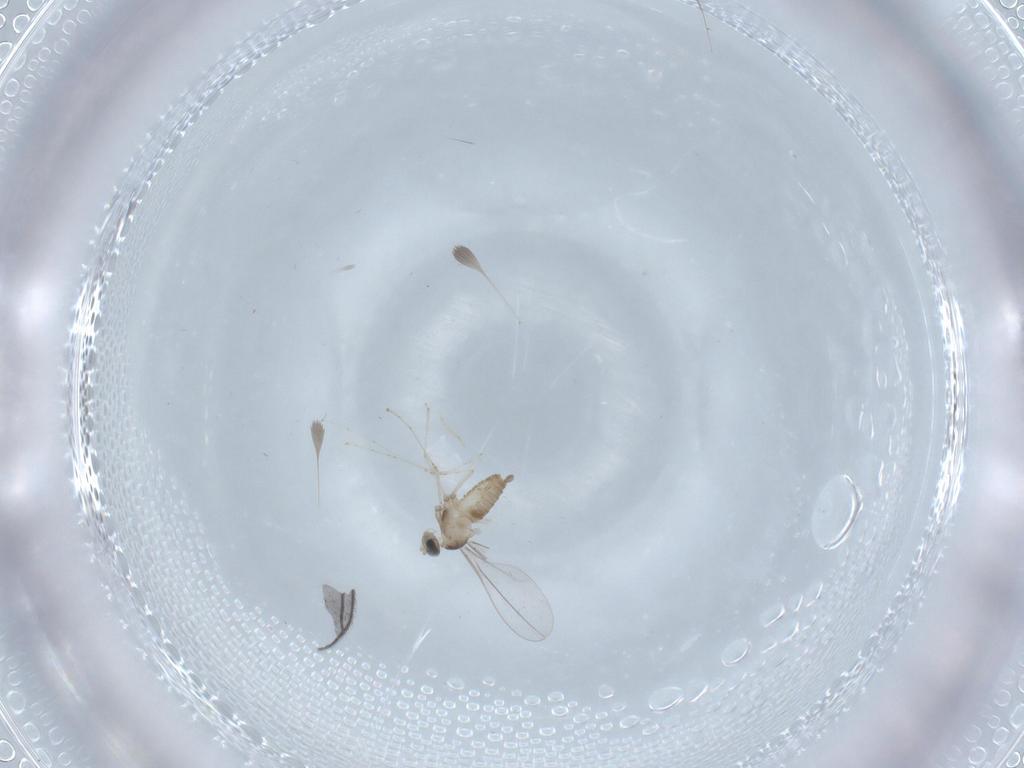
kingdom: Animalia
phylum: Arthropoda
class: Insecta
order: Diptera
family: Cecidomyiidae
